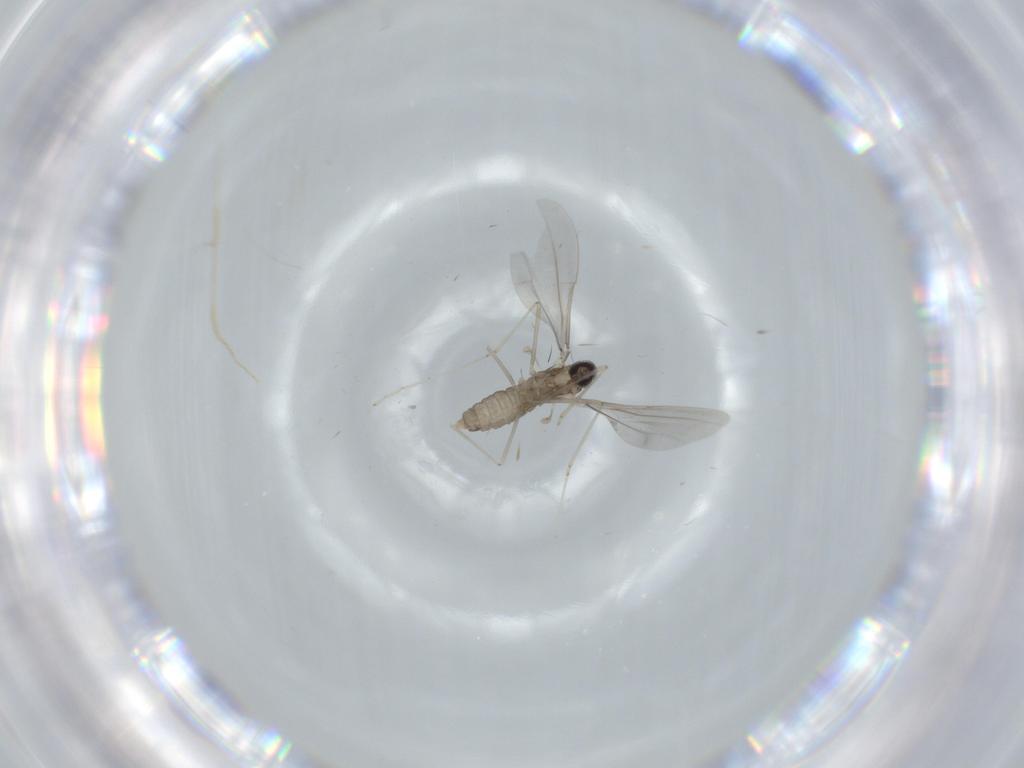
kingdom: Animalia
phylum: Arthropoda
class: Insecta
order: Diptera
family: Cecidomyiidae
